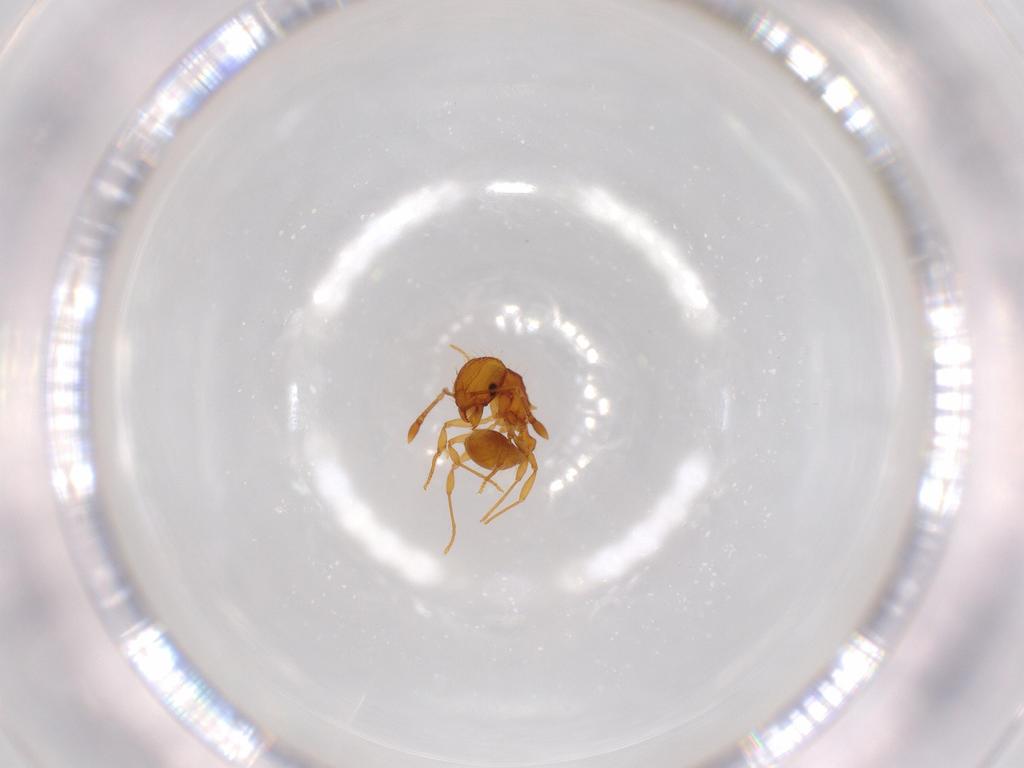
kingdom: Animalia
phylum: Arthropoda
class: Insecta
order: Hymenoptera
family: Formicidae
